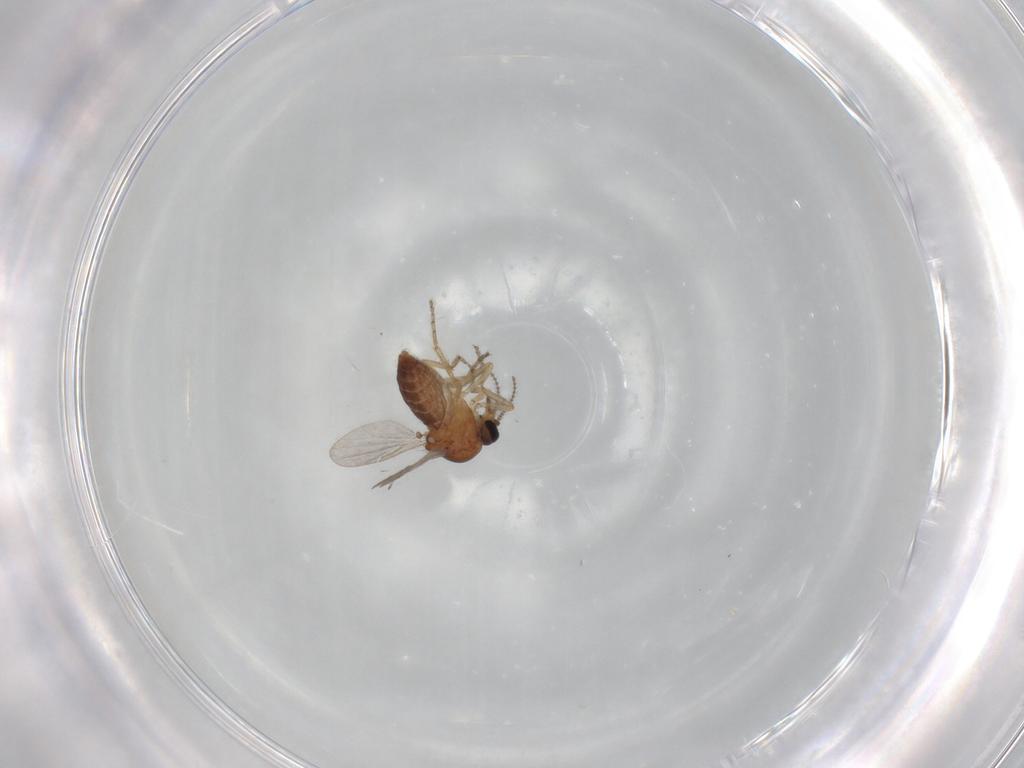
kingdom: Animalia
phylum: Arthropoda
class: Insecta
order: Diptera
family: Ceratopogonidae
